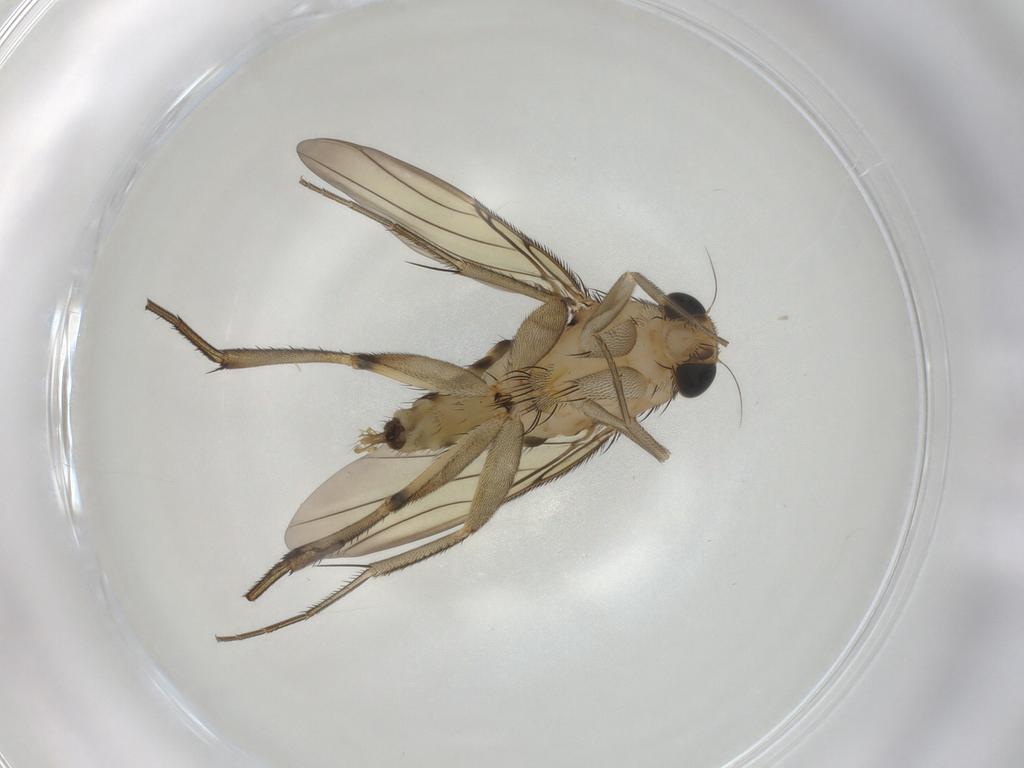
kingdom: Animalia
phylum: Arthropoda
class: Insecta
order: Diptera
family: Phoridae
